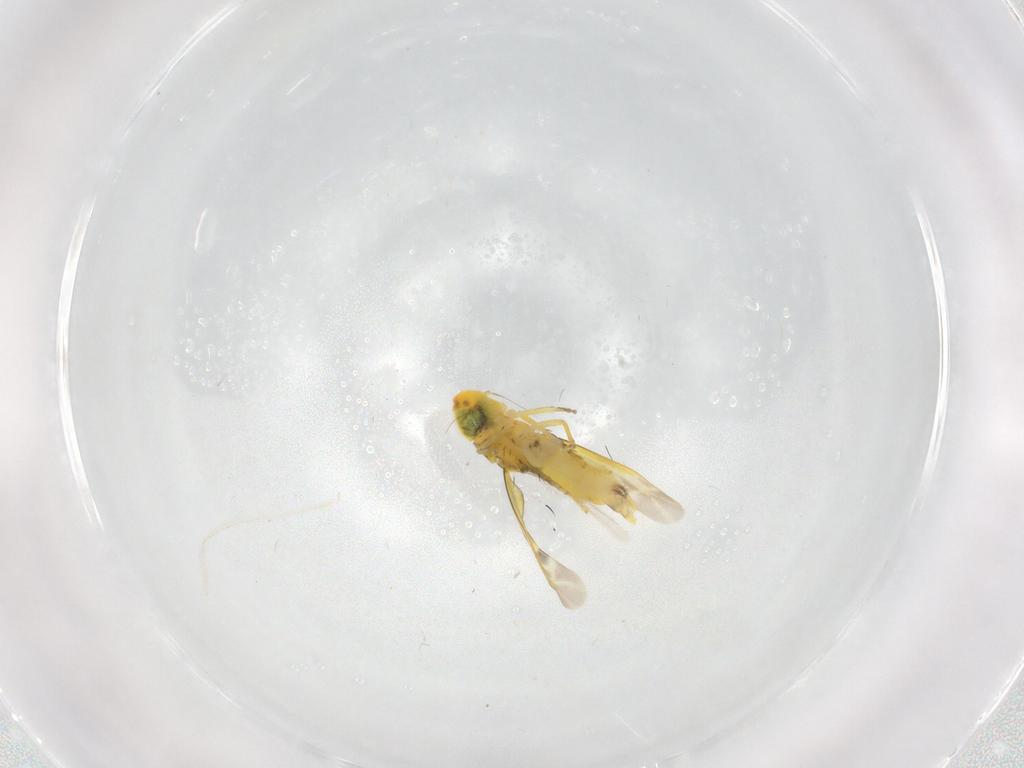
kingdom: Animalia
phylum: Arthropoda
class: Insecta
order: Hemiptera
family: Cicadellidae
